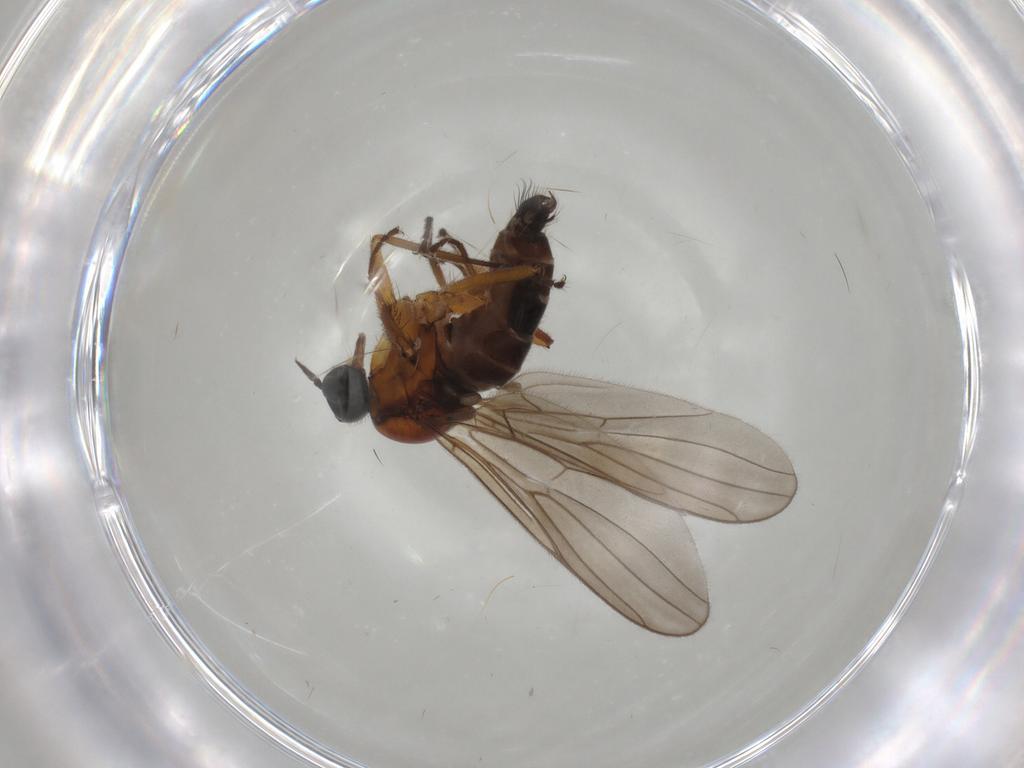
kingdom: Animalia
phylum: Arthropoda
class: Insecta
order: Diptera
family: Hybotidae
